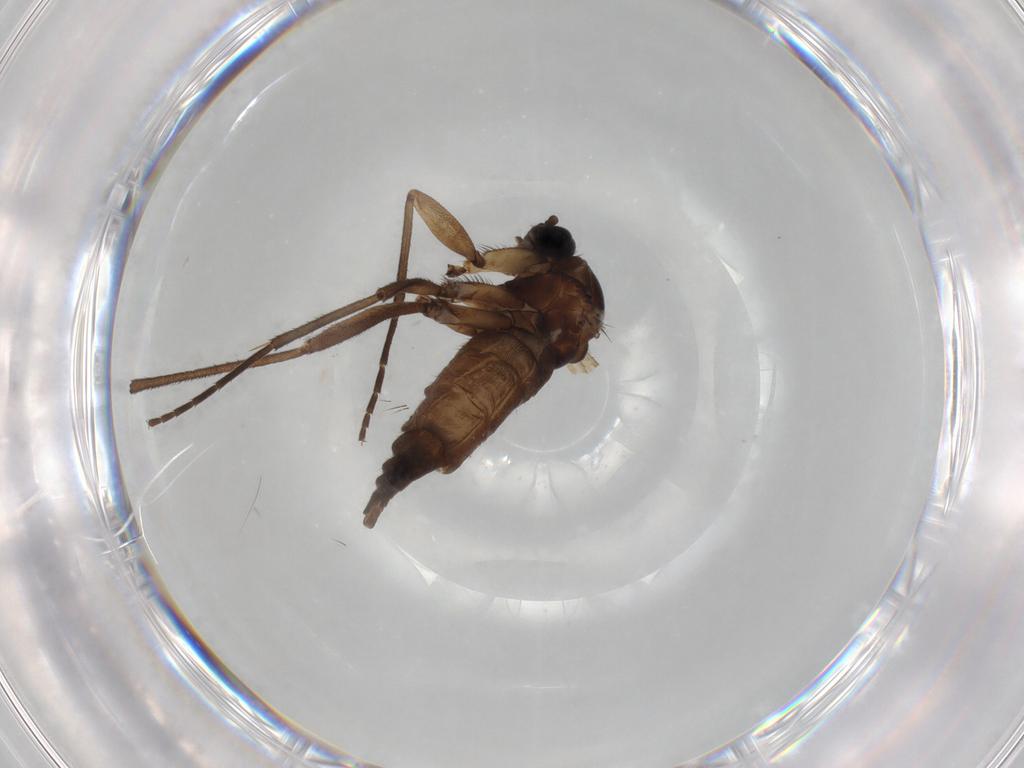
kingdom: Animalia
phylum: Arthropoda
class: Insecta
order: Diptera
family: Sciaridae
